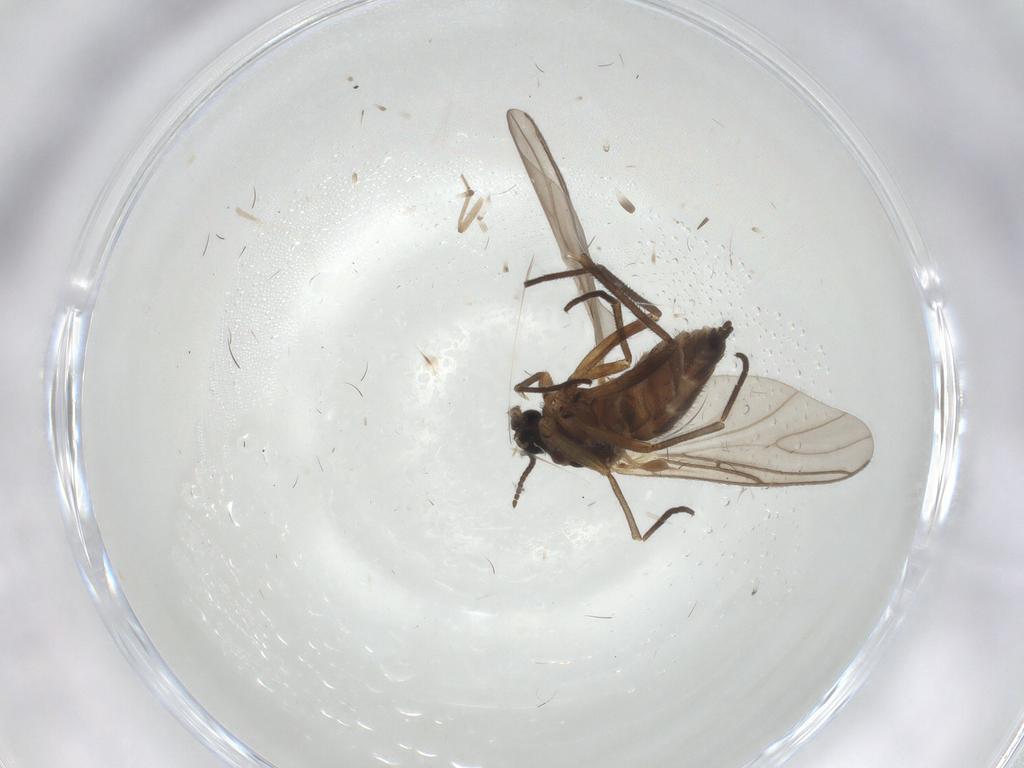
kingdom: Animalia
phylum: Arthropoda
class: Insecta
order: Diptera
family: Sciaridae
